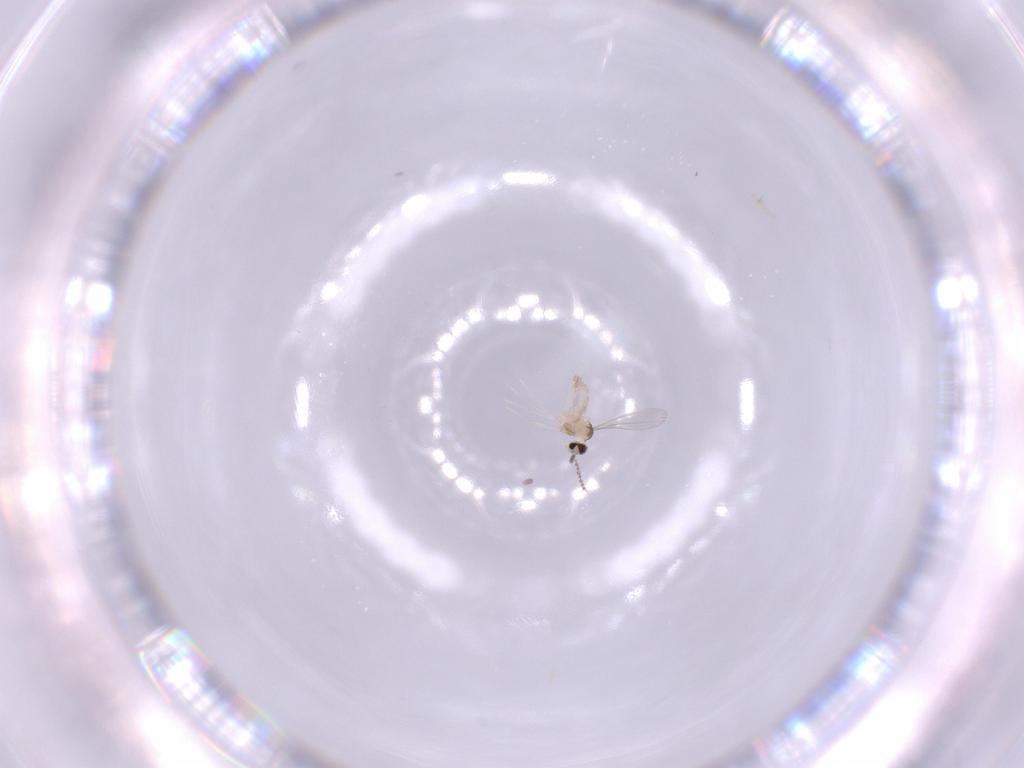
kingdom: Animalia
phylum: Arthropoda
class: Insecta
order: Diptera
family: Cecidomyiidae
